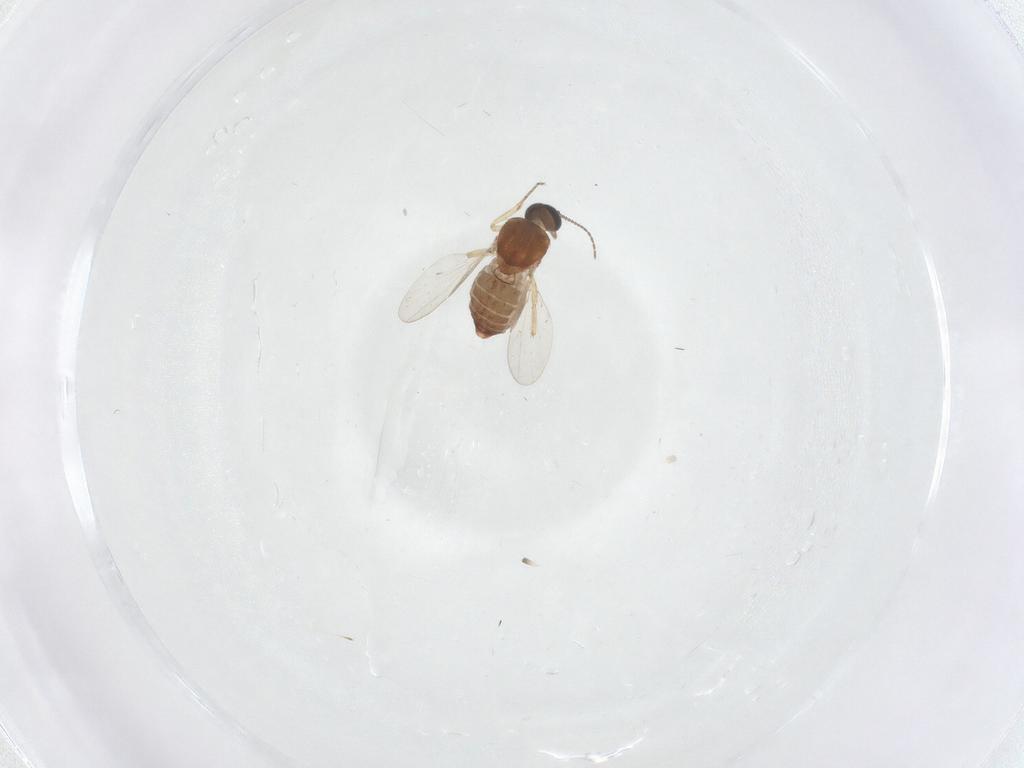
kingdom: Animalia
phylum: Arthropoda
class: Insecta
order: Diptera
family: Ceratopogonidae
